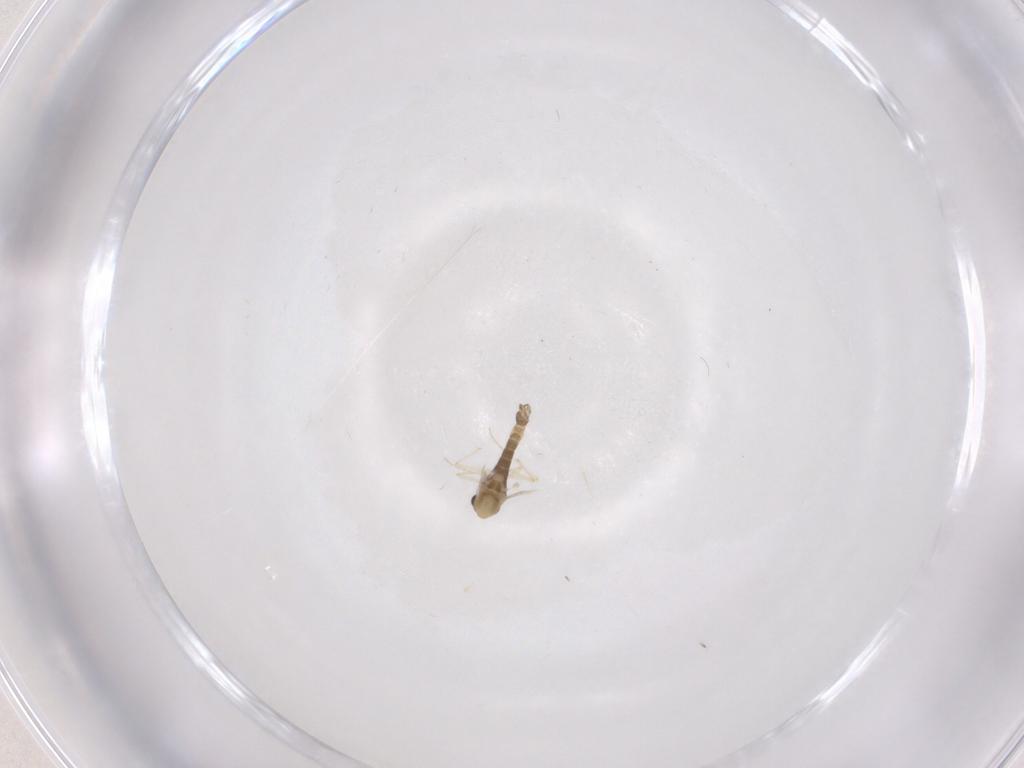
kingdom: Animalia
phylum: Arthropoda
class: Insecta
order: Diptera
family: Chironomidae
